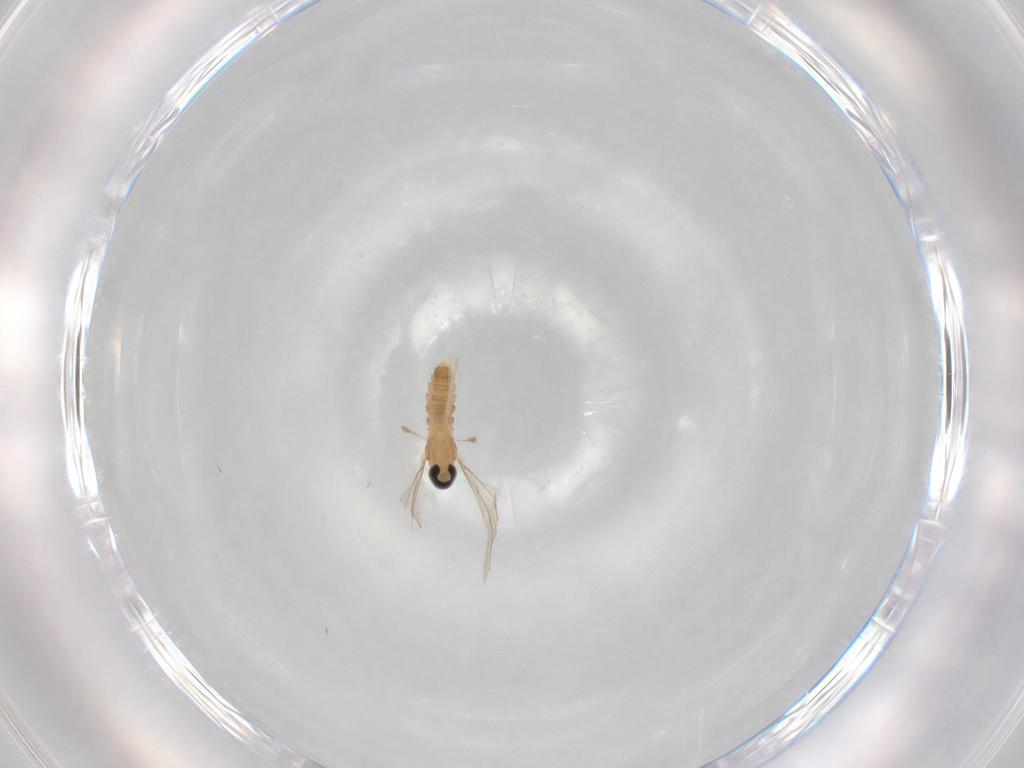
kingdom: Animalia
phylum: Arthropoda
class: Insecta
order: Diptera
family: Cecidomyiidae
